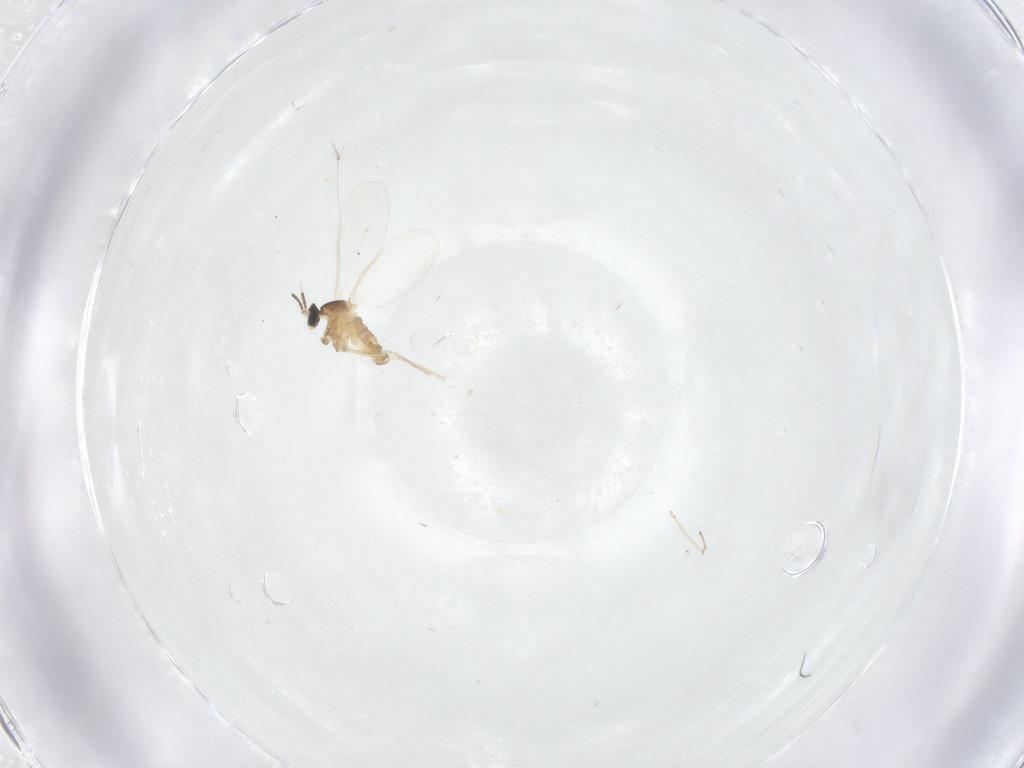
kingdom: Animalia
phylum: Arthropoda
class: Insecta
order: Diptera
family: Cecidomyiidae
